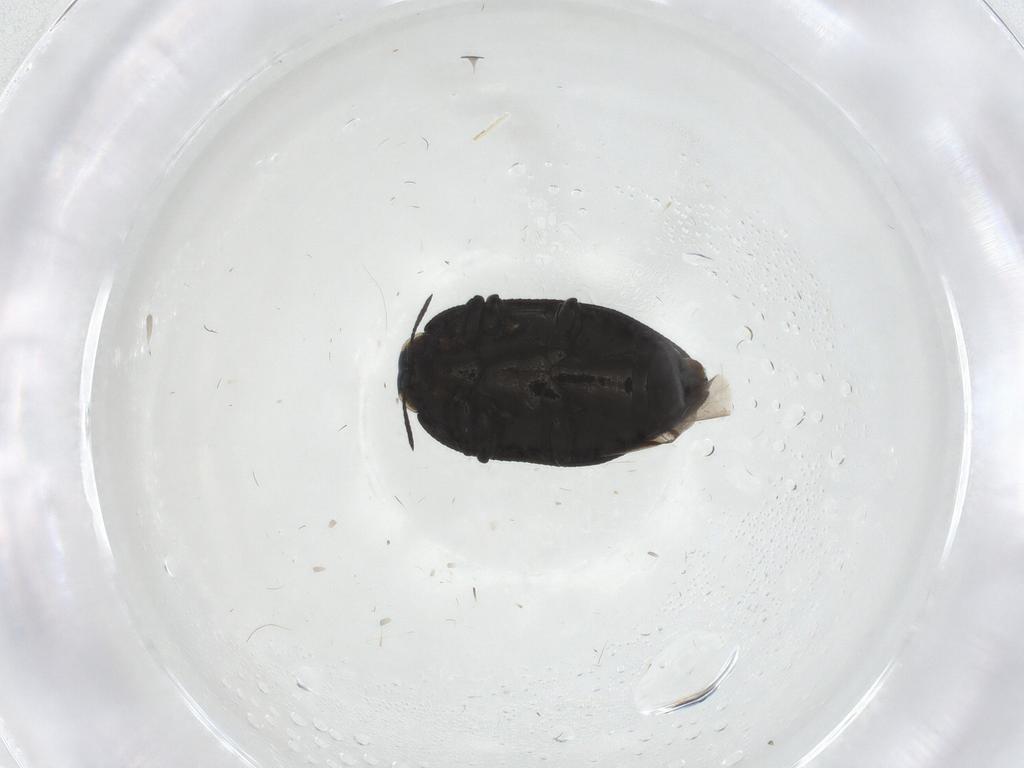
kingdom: Animalia
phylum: Arthropoda
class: Insecta
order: Coleoptera
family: Buprestidae
